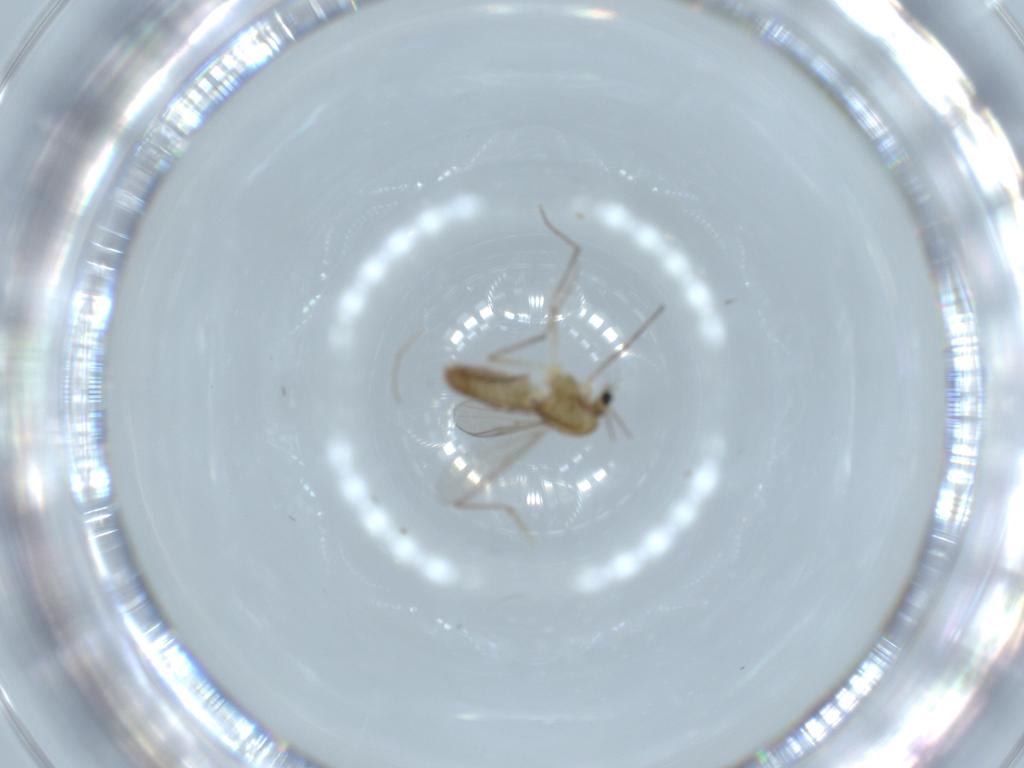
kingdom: Animalia
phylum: Arthropoda
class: Insecta
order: Diptera
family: Chironomidae
